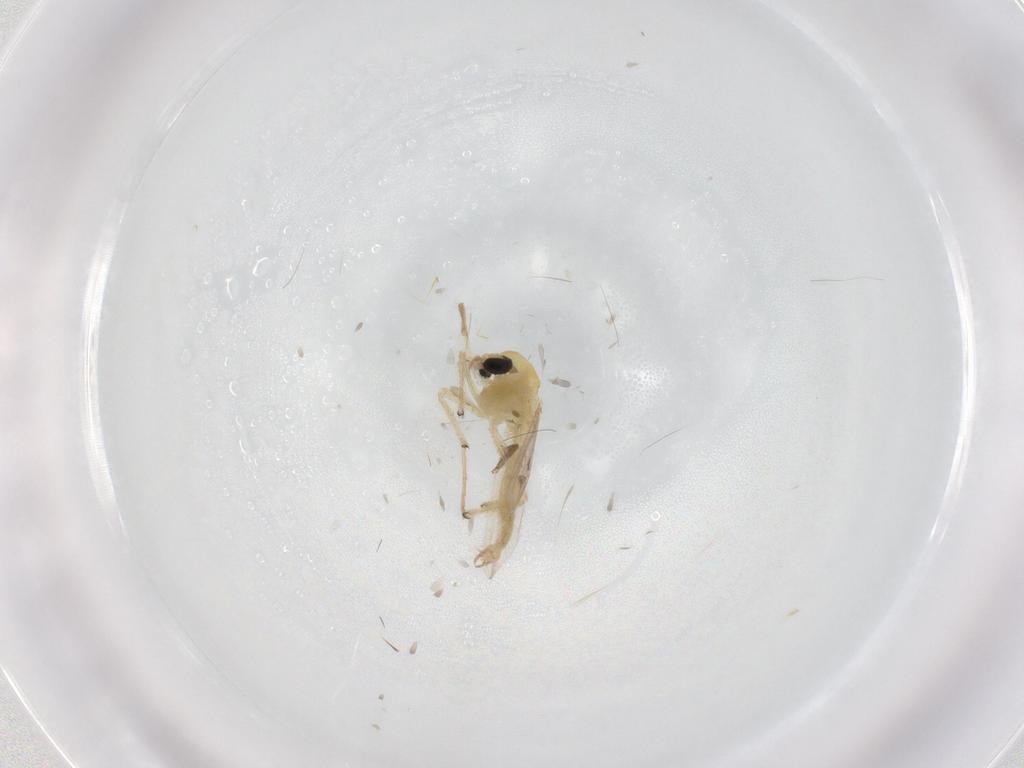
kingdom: Animalia
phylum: Arthropoda
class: Insecta
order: Diptera
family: Chironomidae
